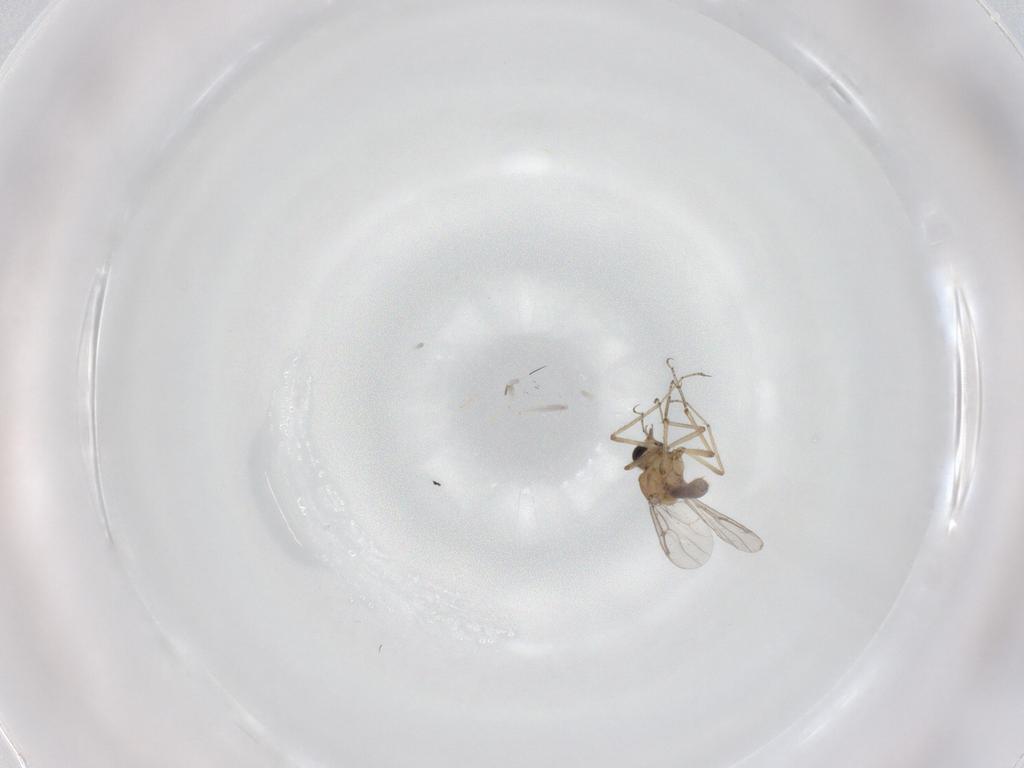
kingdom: Animalia
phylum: Arthropoda
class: Insecta
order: Diptera
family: Ceratopogonidae
